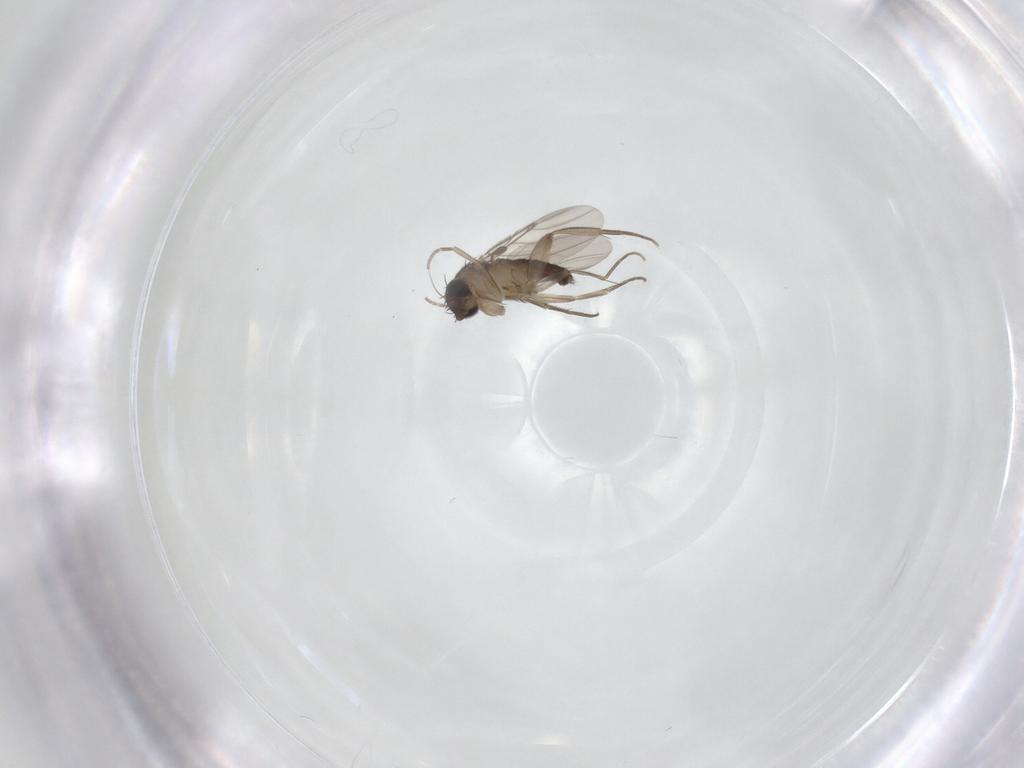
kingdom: Animalia
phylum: Arthropoda
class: Insecta
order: Diptera
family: Phoridae
